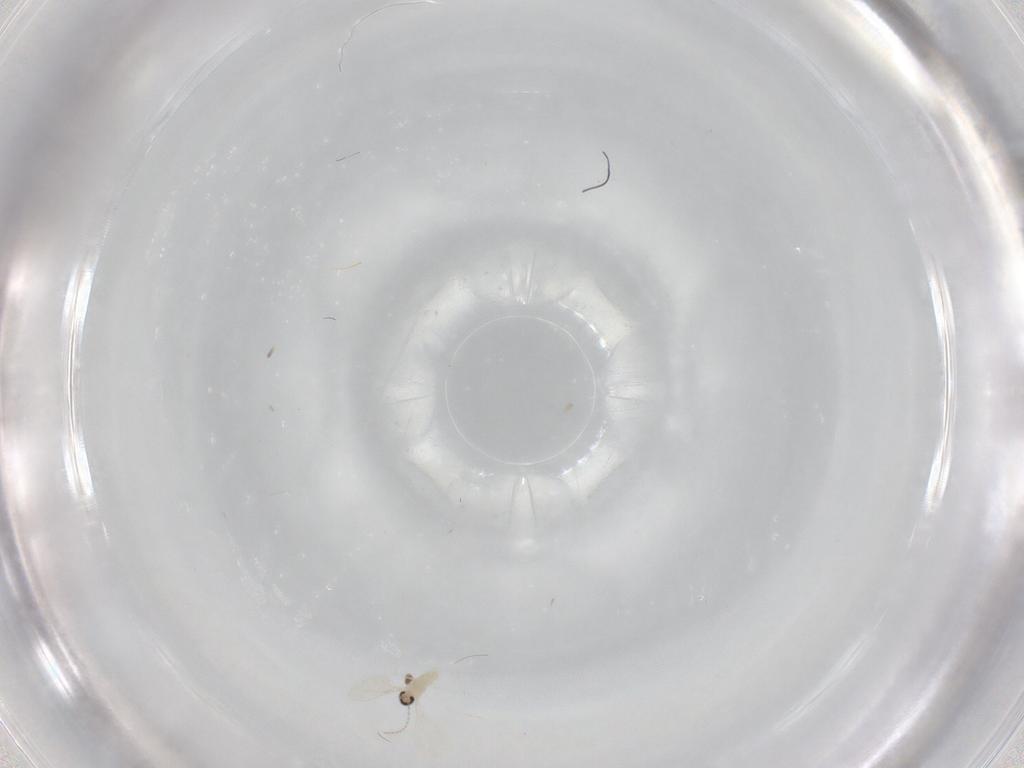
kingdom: Animalia
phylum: Arthropoda
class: Insecta
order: Diptera
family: Cecidomyiidae
